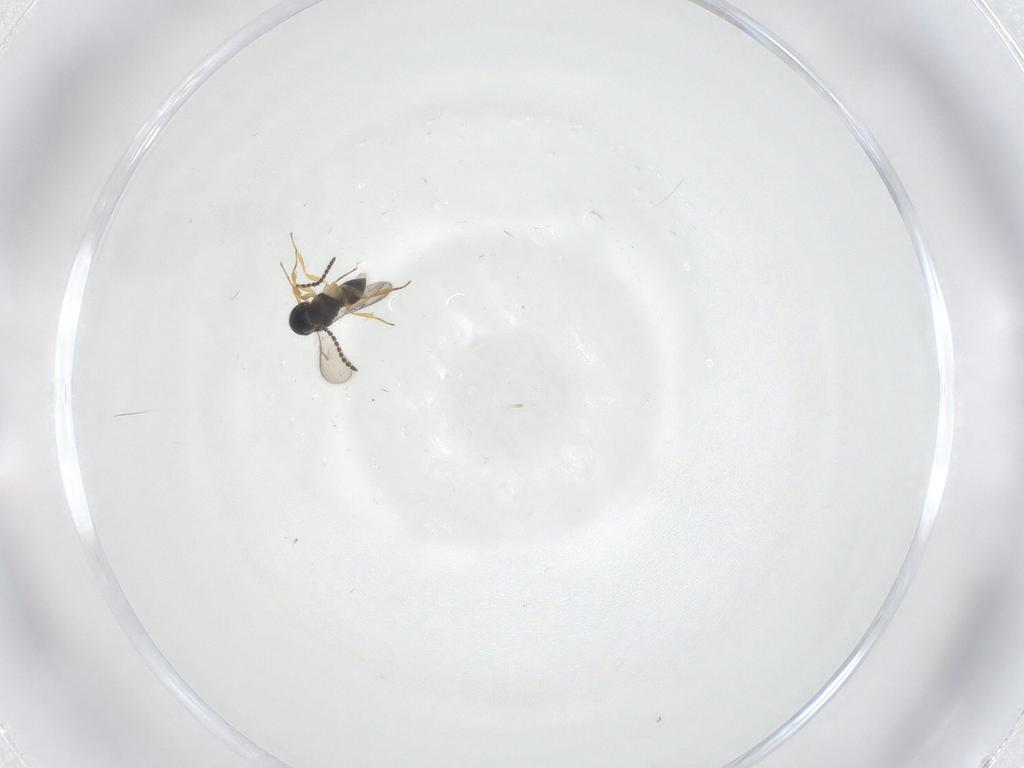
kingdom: Animalia
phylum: Arthropoda
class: Insecta
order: Hymenoptera
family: Scelionidae
